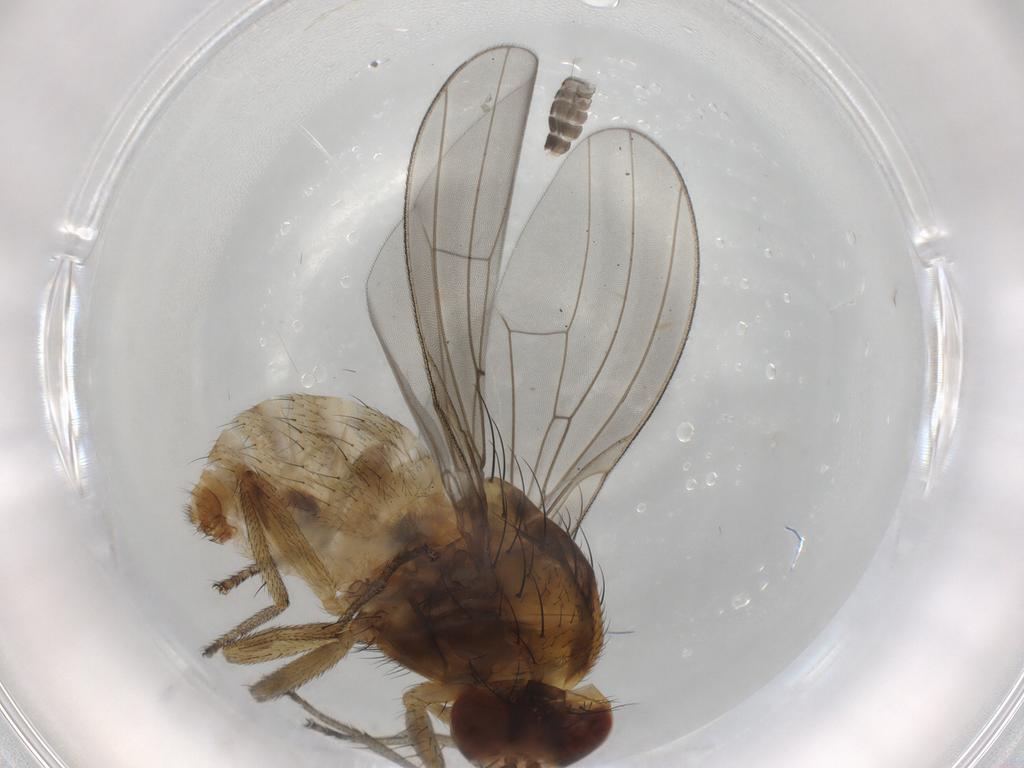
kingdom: Animalia
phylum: Arthropoda
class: Insecta
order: Diptera
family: Lauxaniidae
